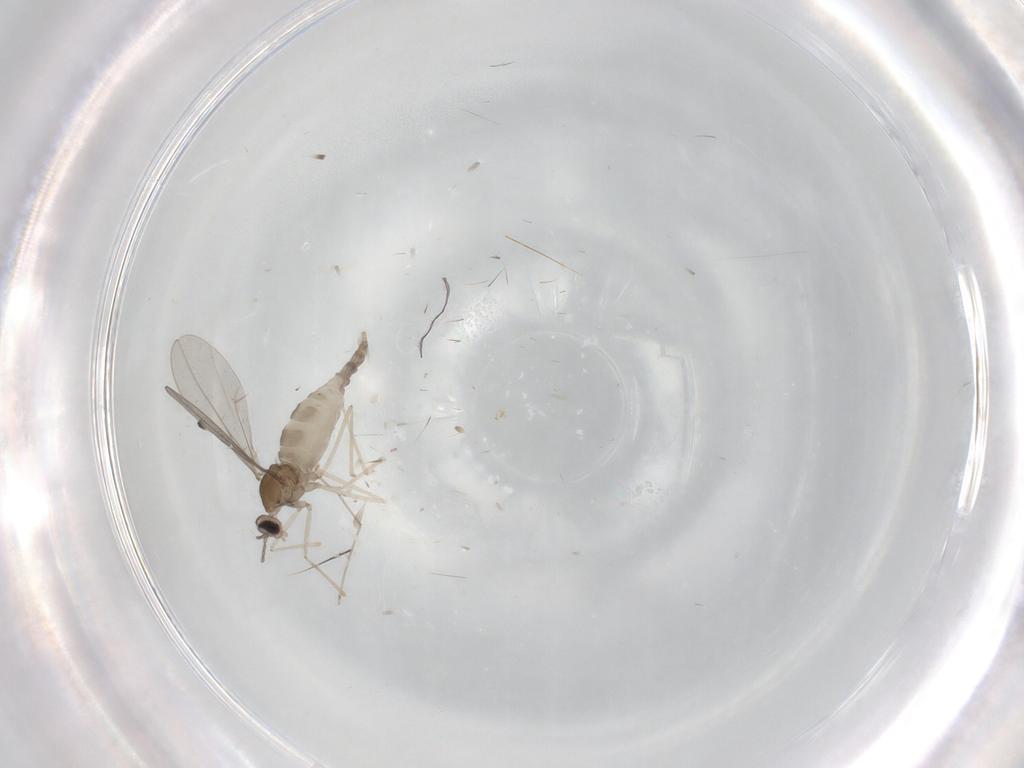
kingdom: Animalia
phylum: Arthropoda
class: Insecta
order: Diptera
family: Cecidomyiidae
